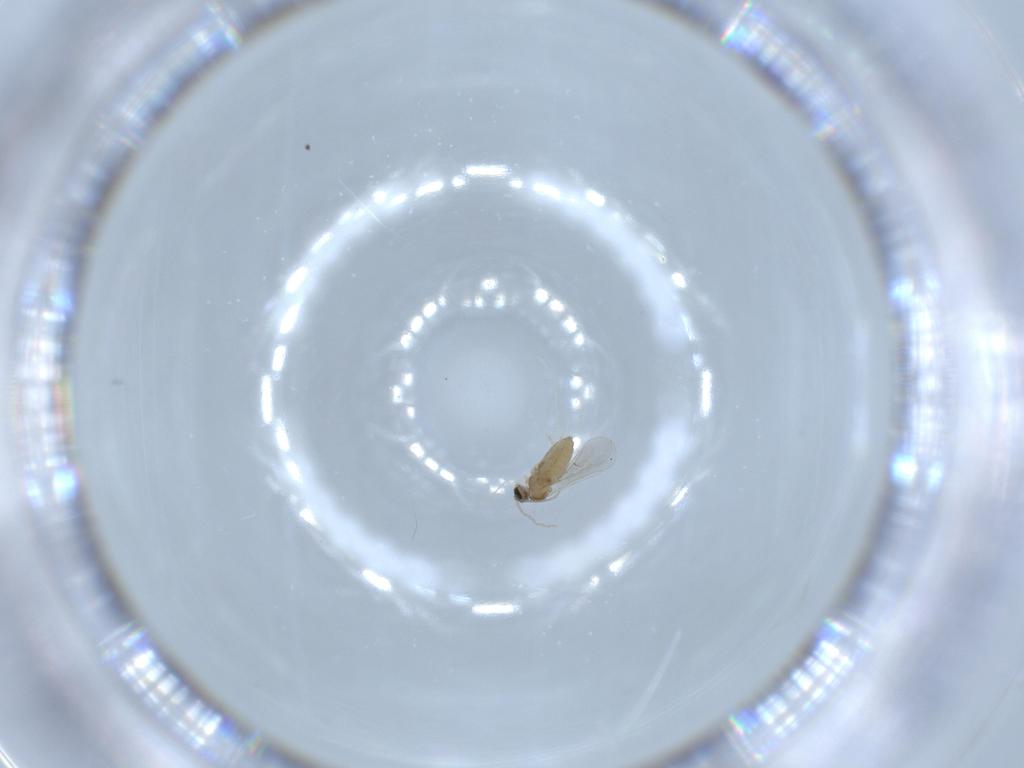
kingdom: Animalia
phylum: Arthropoda
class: Insecta
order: Diptera
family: Cecidomyiidae
